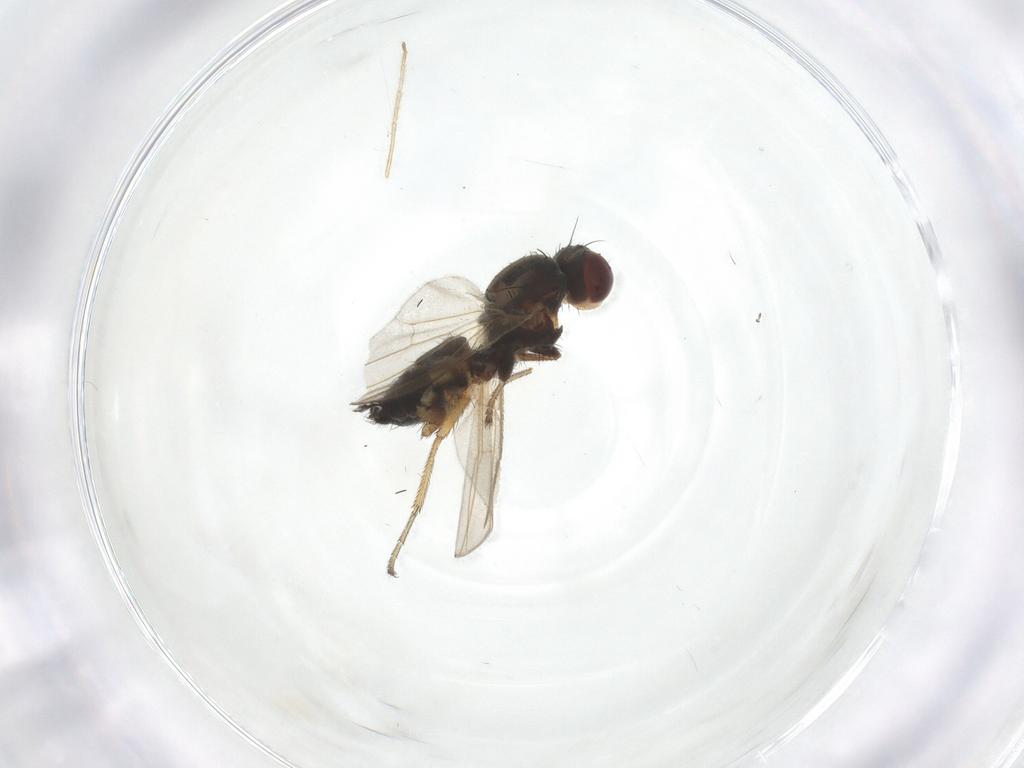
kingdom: Animalia
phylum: Arthropoda
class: Insecta
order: Diptera
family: Heleomyzidae
